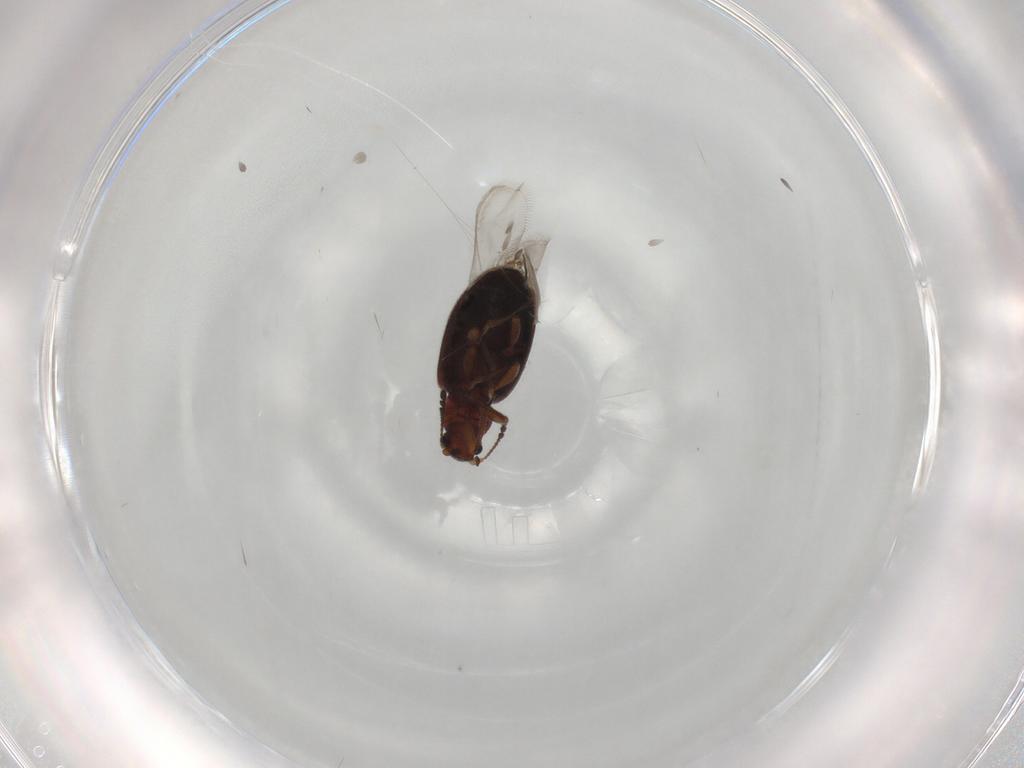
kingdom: Animalia
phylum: Arthropoda
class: Insecta
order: Coleoptera
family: Latridiidae
